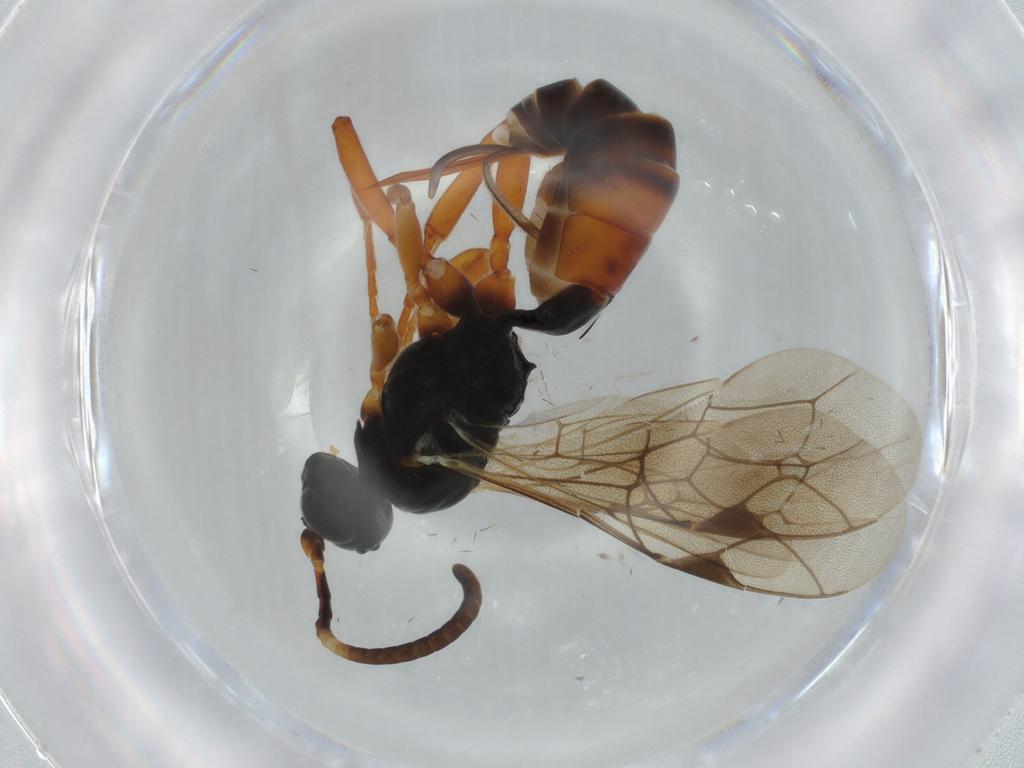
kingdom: Animalia
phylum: Arthropoda
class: Insecta
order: Hymenoptera
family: Ichneumonidae
